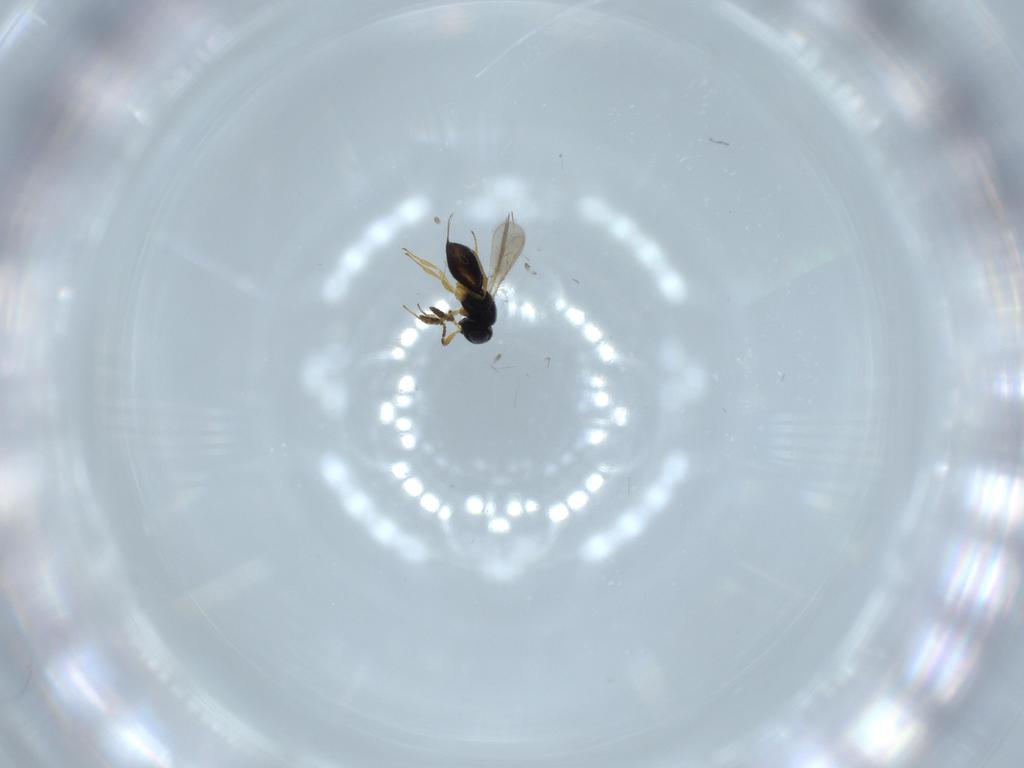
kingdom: Animalia
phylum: Arthropoda
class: Insecta
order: Hymenoptera
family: Scelionidae
